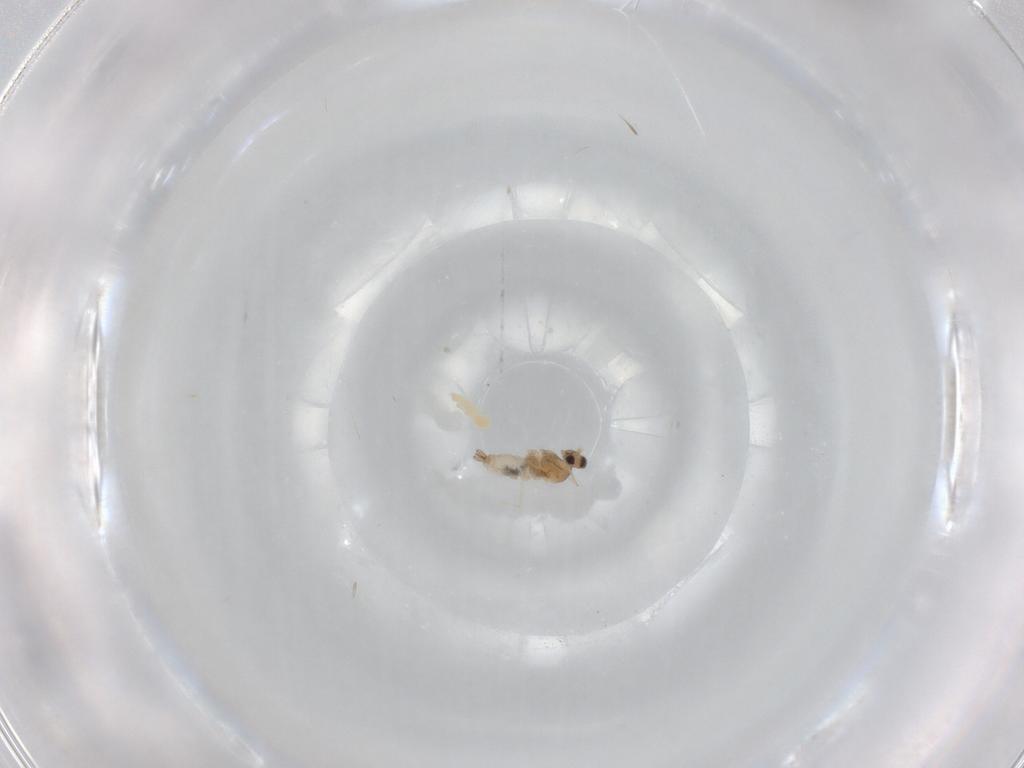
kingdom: Animalia
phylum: Arthropoda
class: Insecta
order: Diptera
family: Cecidomyiidae
